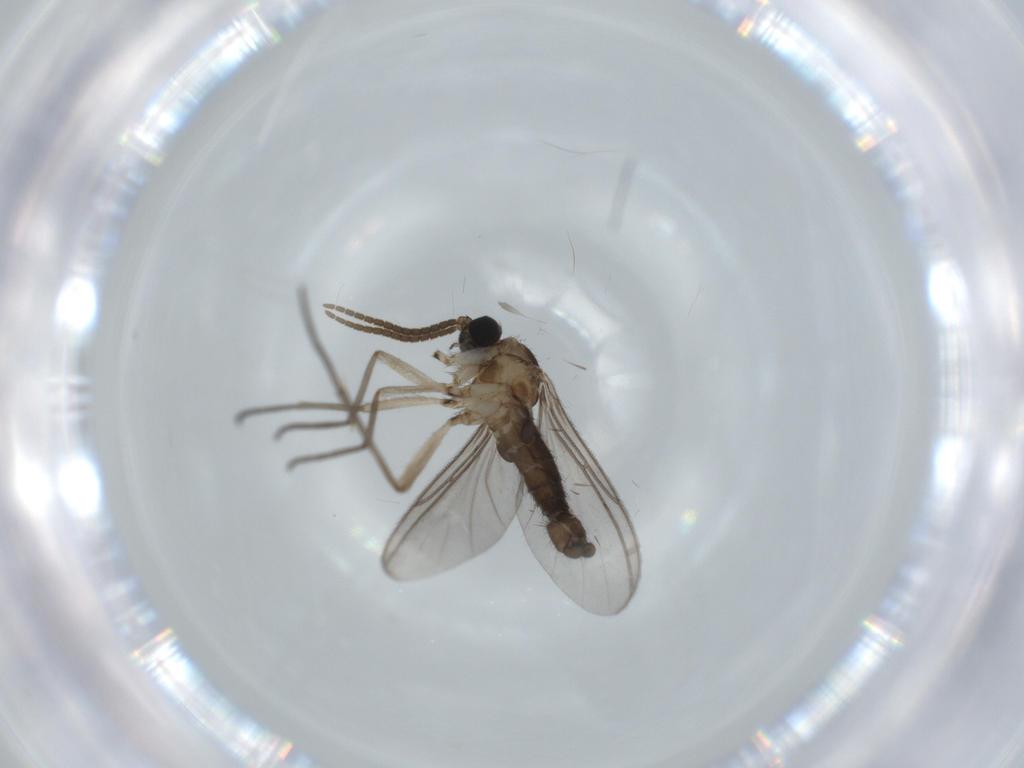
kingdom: Animalia
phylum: Arthropoda
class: Insecta
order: Diptera
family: Sciaridae
